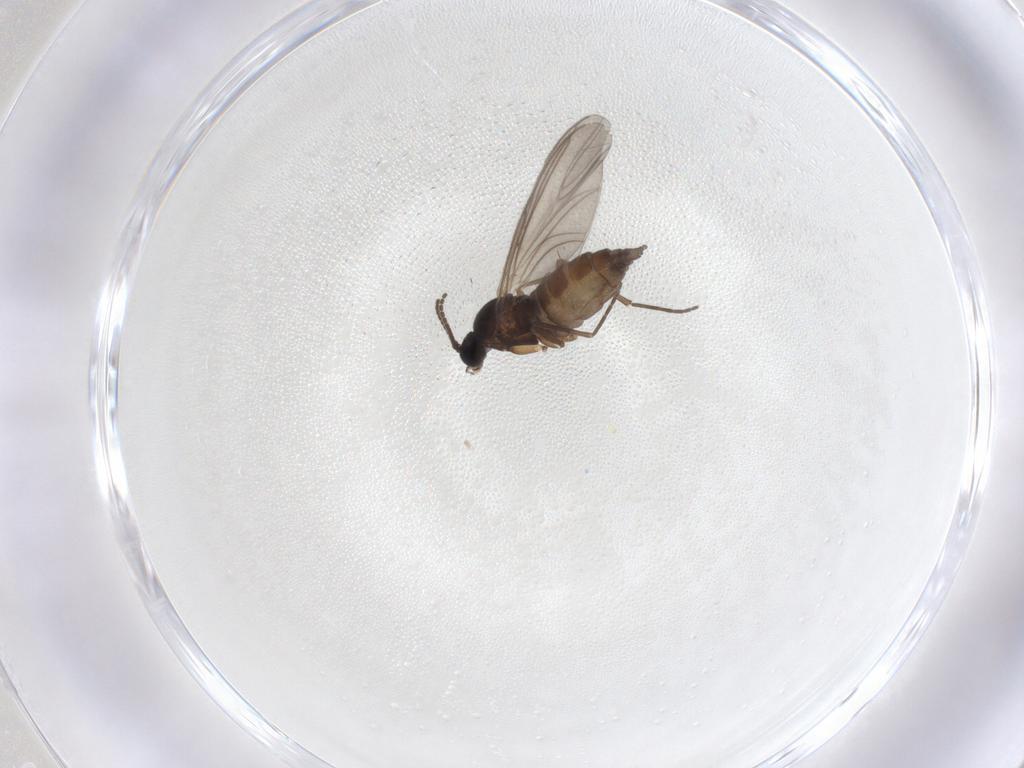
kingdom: Animalia
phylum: Arthropoda
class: Insecta
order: Diptera
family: Sciaridae
